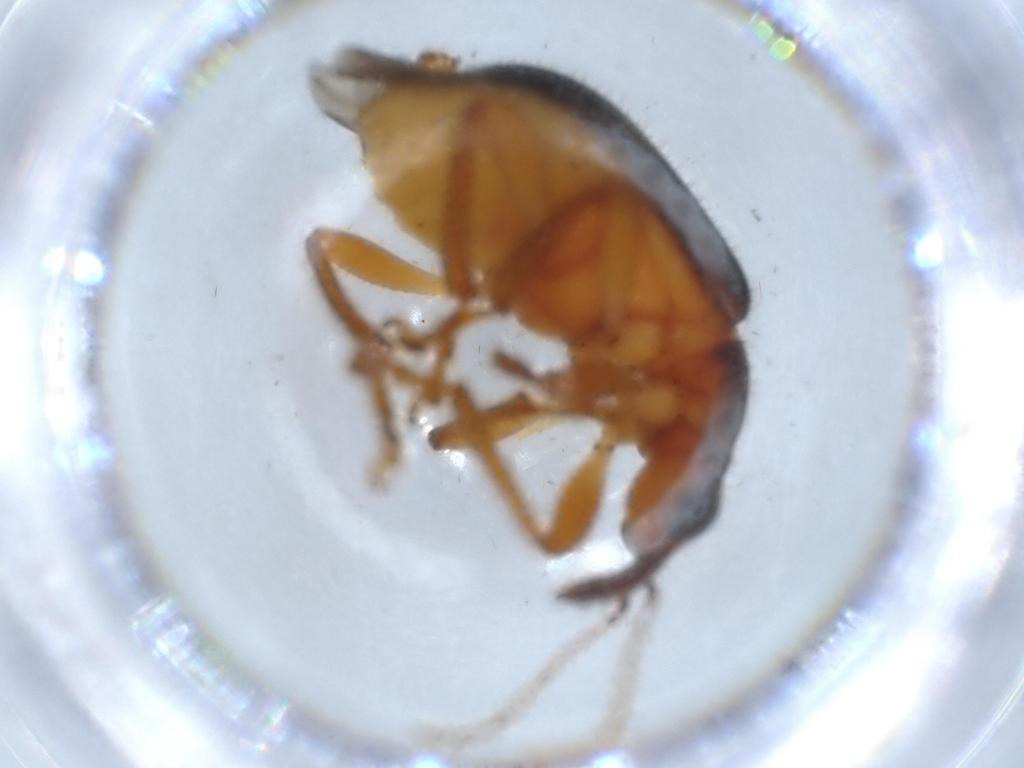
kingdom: Animalia
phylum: Arthropoda
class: Insecta
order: Coleoptera
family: Attelabidae
